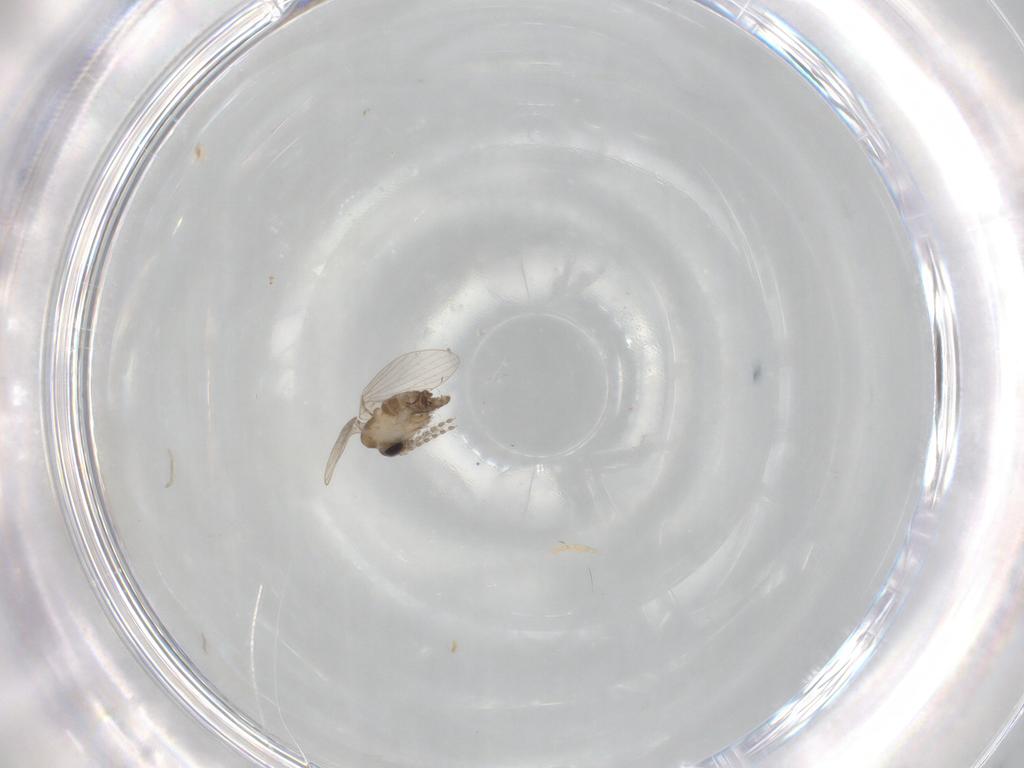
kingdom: Animalia
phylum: Arthropoda
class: Insecta
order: Diptera
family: Psychodidae
